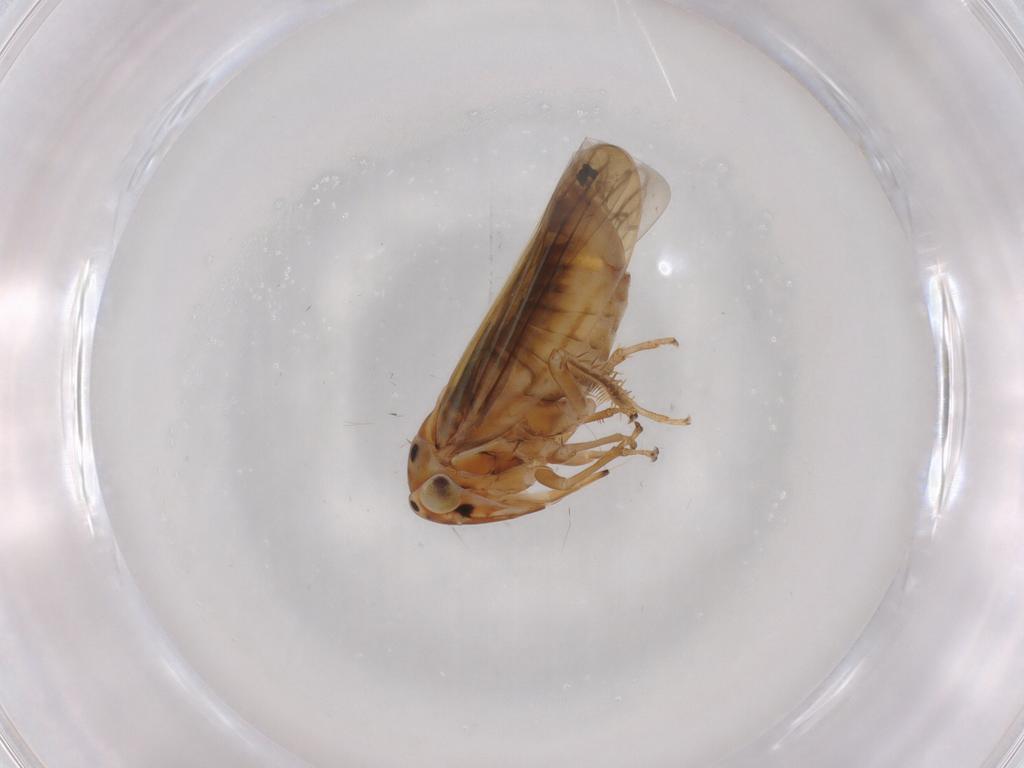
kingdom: Animalia
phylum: Arthropoda
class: Insecta
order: Hemiptera
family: Cicadellidae
